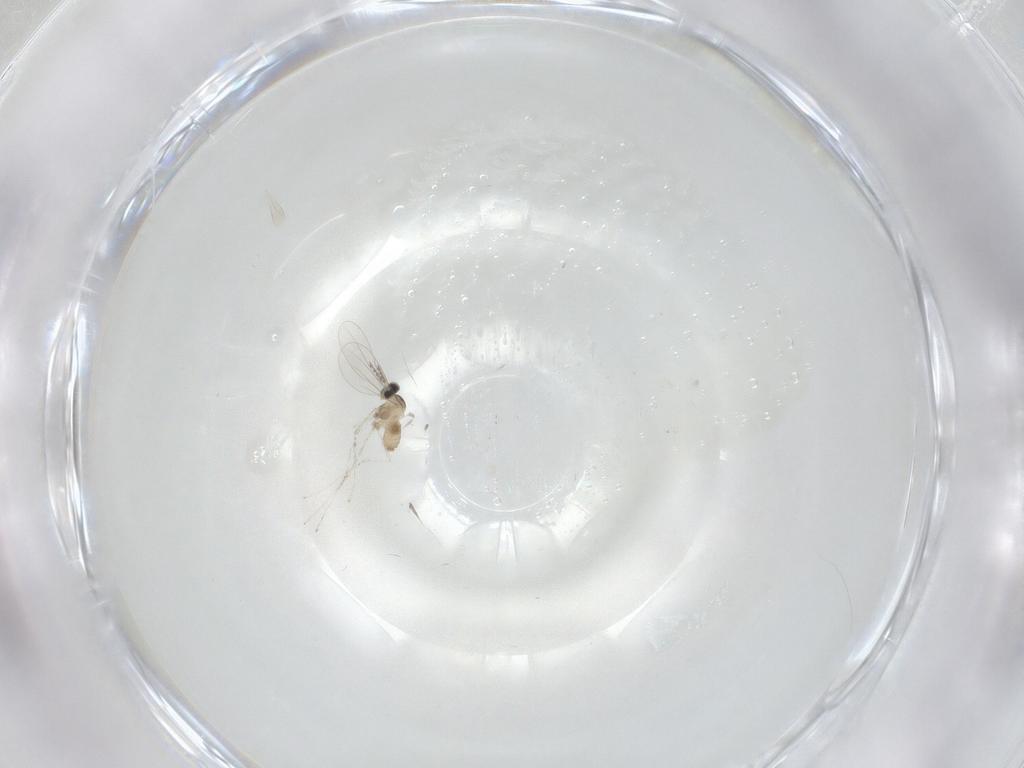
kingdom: Animalia
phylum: Arthropoda
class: Insecta
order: Diptera
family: Cecidomyiidae
